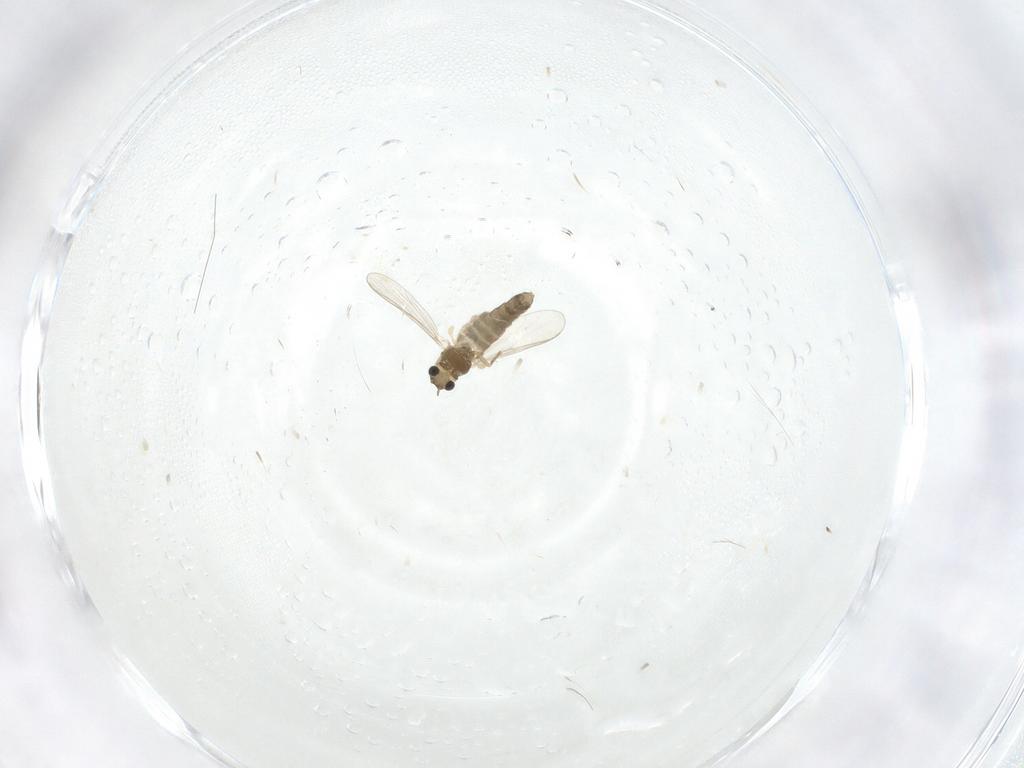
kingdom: Animalia
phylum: Arthropoda
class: Insecta
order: Diptera
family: Chironomidae
